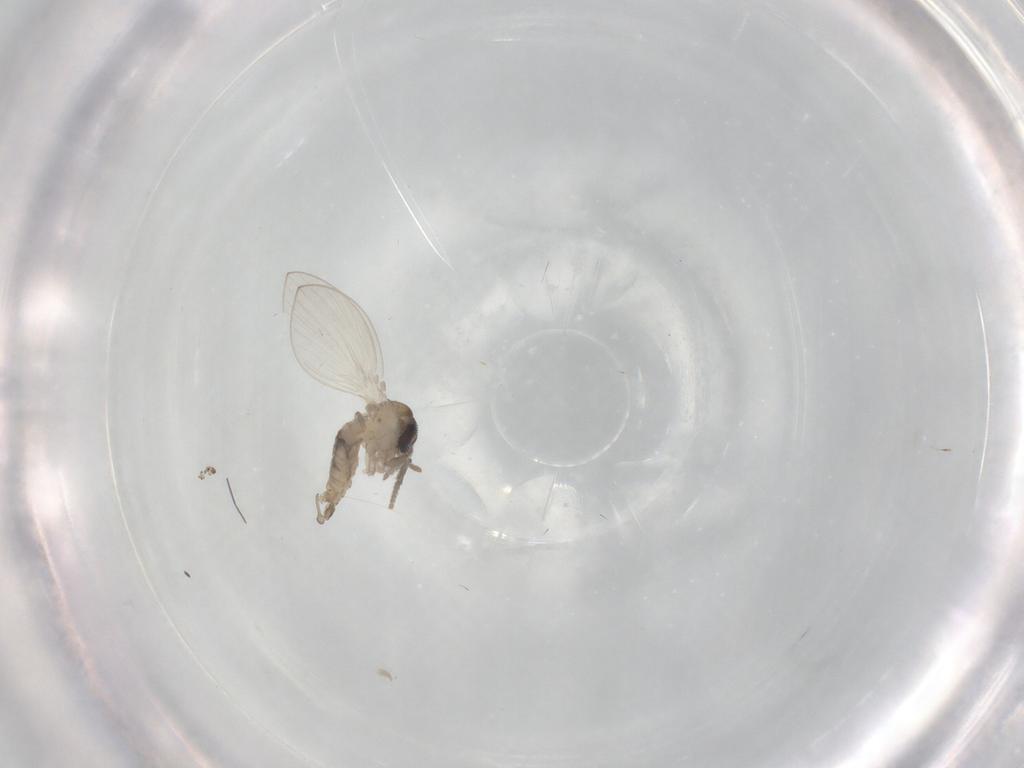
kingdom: Animalia
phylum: Arthropoda
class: Insecta
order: Diptera
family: Psychodidae
